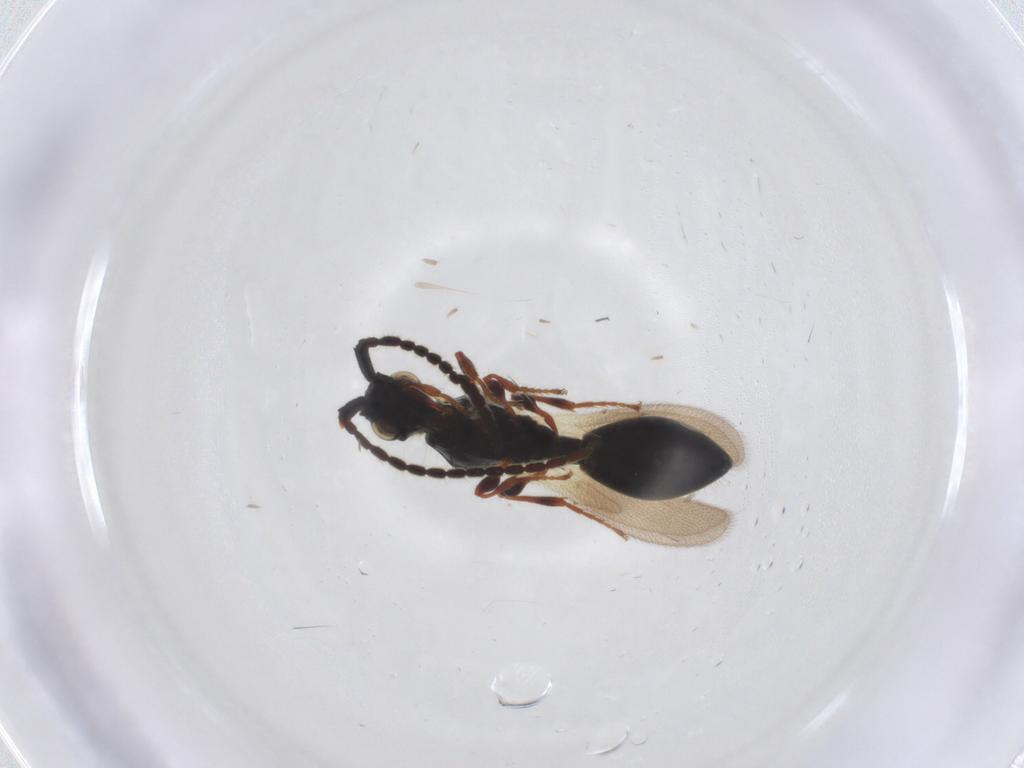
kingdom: Animalia
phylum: Arthropoda
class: Insecta
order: Hymenoptera
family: Diapriidae
